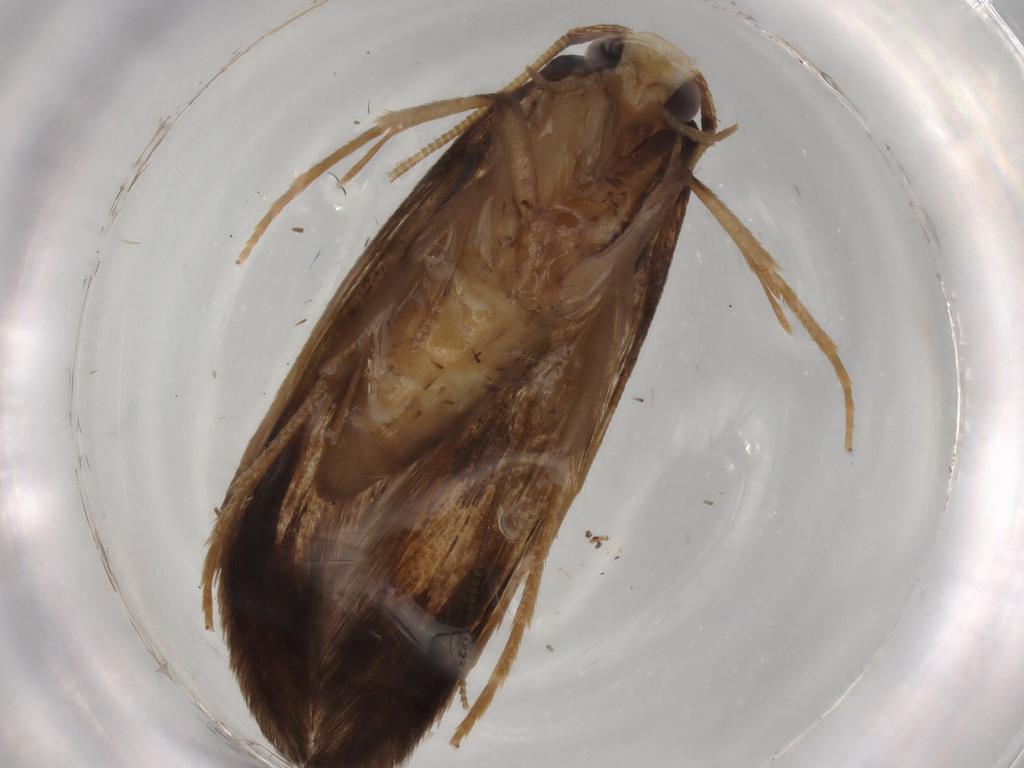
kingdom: Animalia
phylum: Arthropoda
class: Insecta
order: Lepidoptera
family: Tineidae
